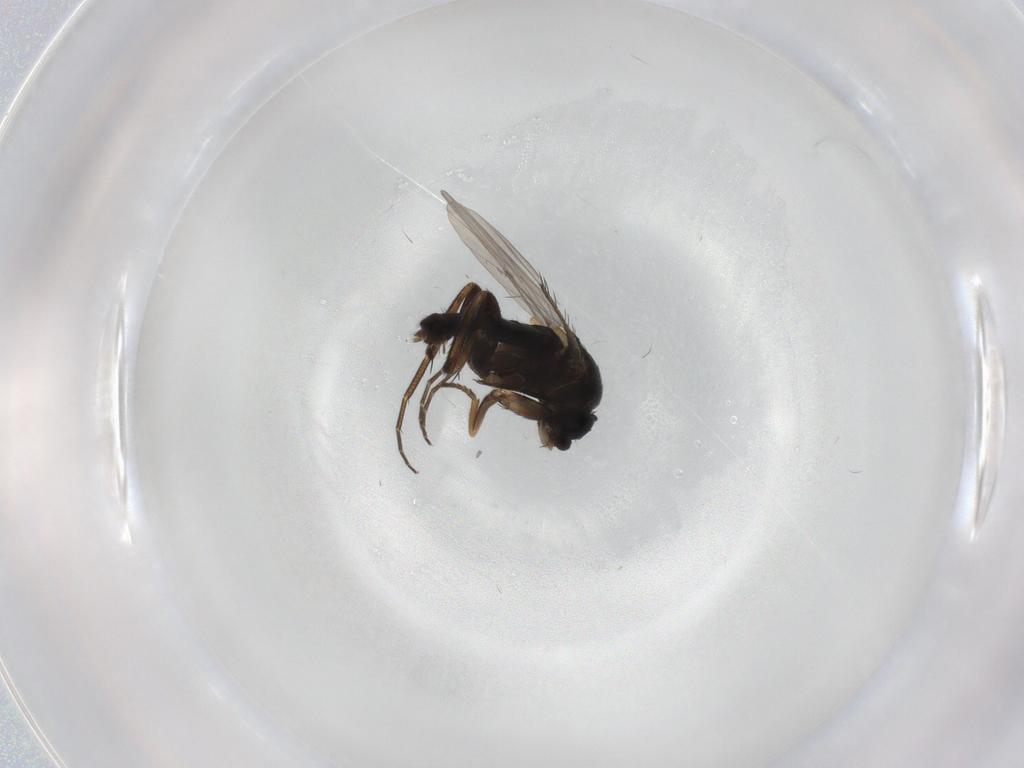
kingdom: Animalia
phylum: Arthropoda
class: Insecta
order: Diptera
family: Phoridae
